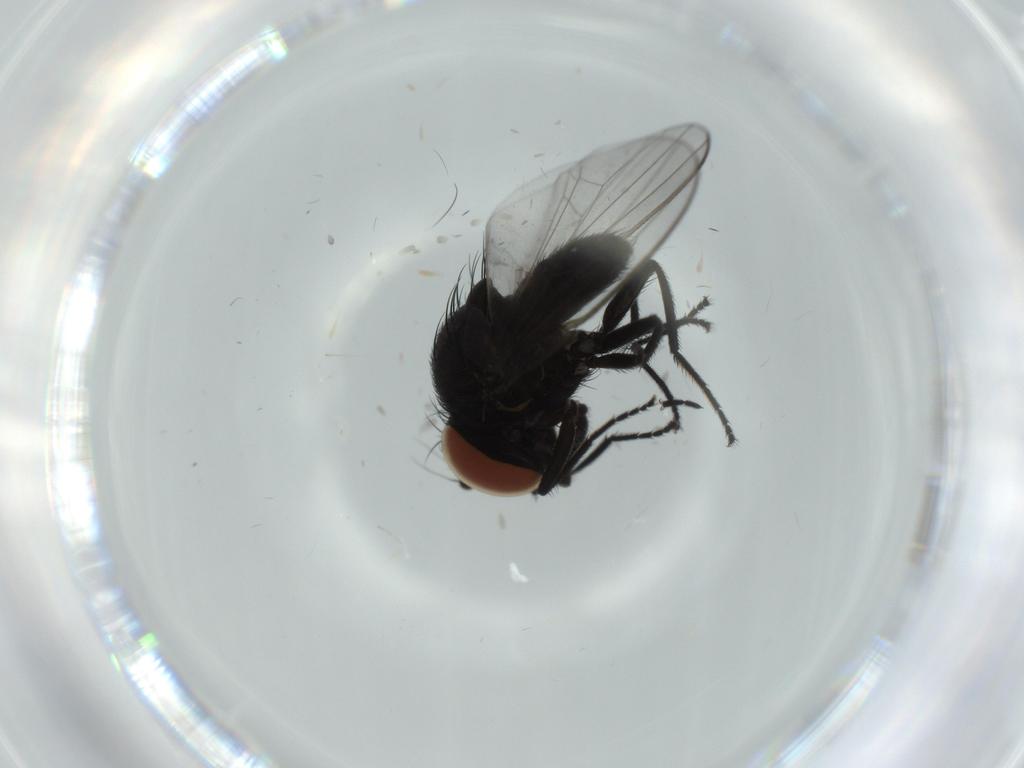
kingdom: Animalia
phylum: Arthropoda
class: Insecta
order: Diptera
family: Milichiidae
